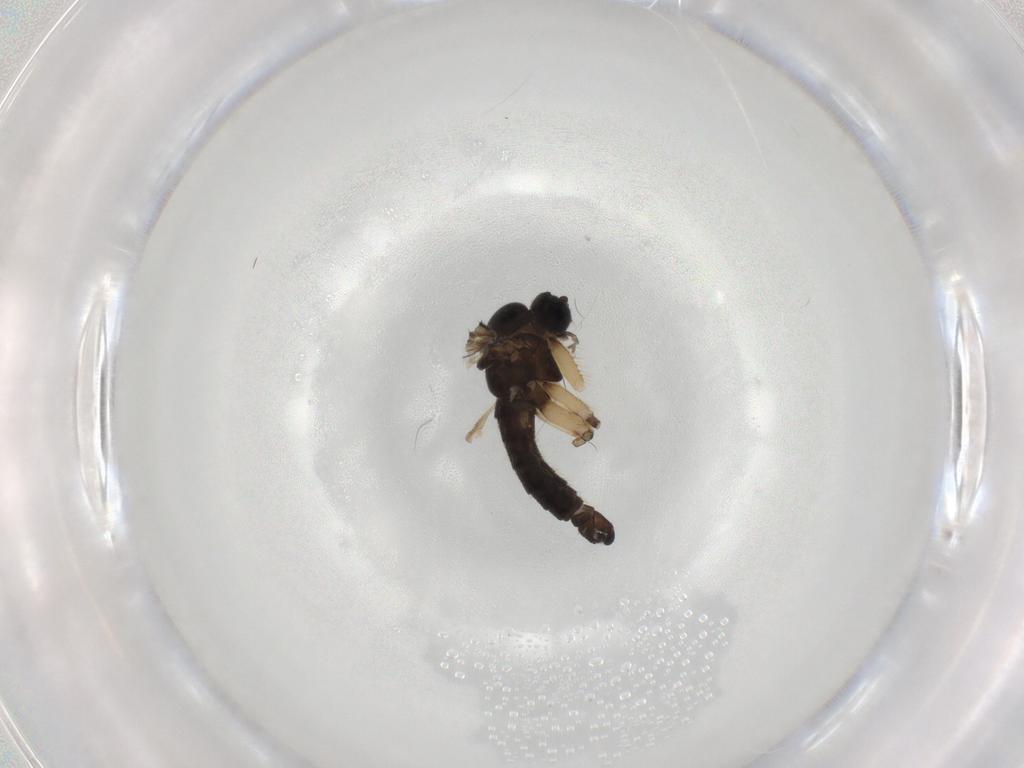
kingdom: Animalia
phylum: Arthropoda
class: Insecta
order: Diptera
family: Sciaridae
